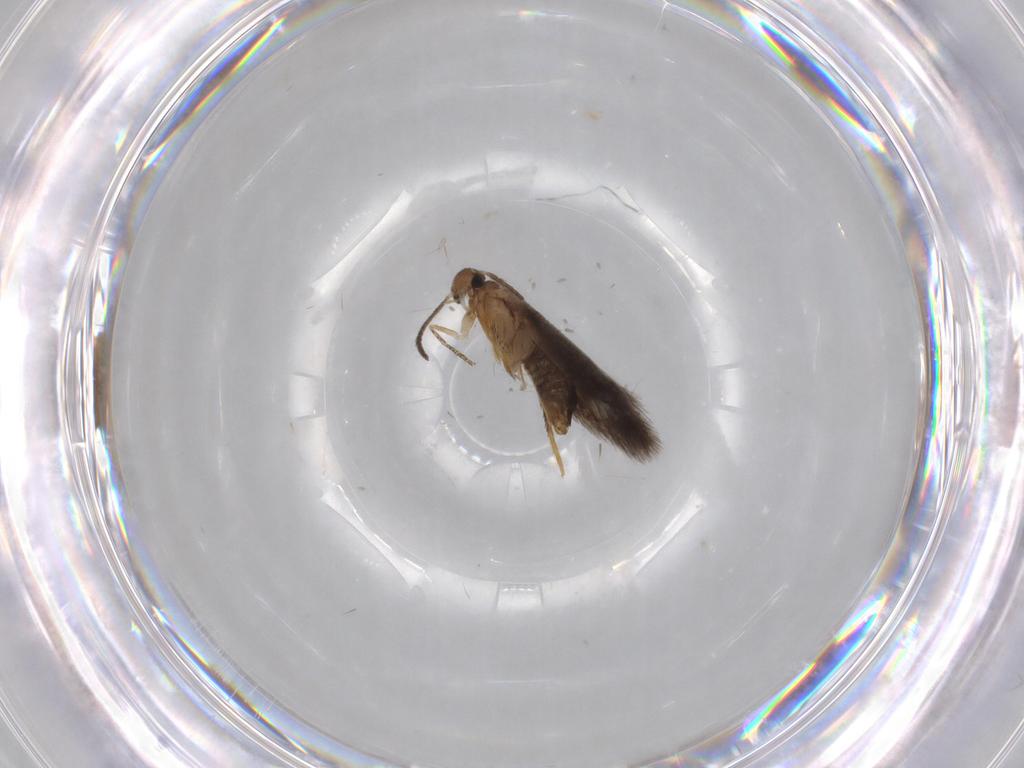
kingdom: Animalia
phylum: Arthropoda
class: Insecta
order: Lepidoptera
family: Heliozelidae
